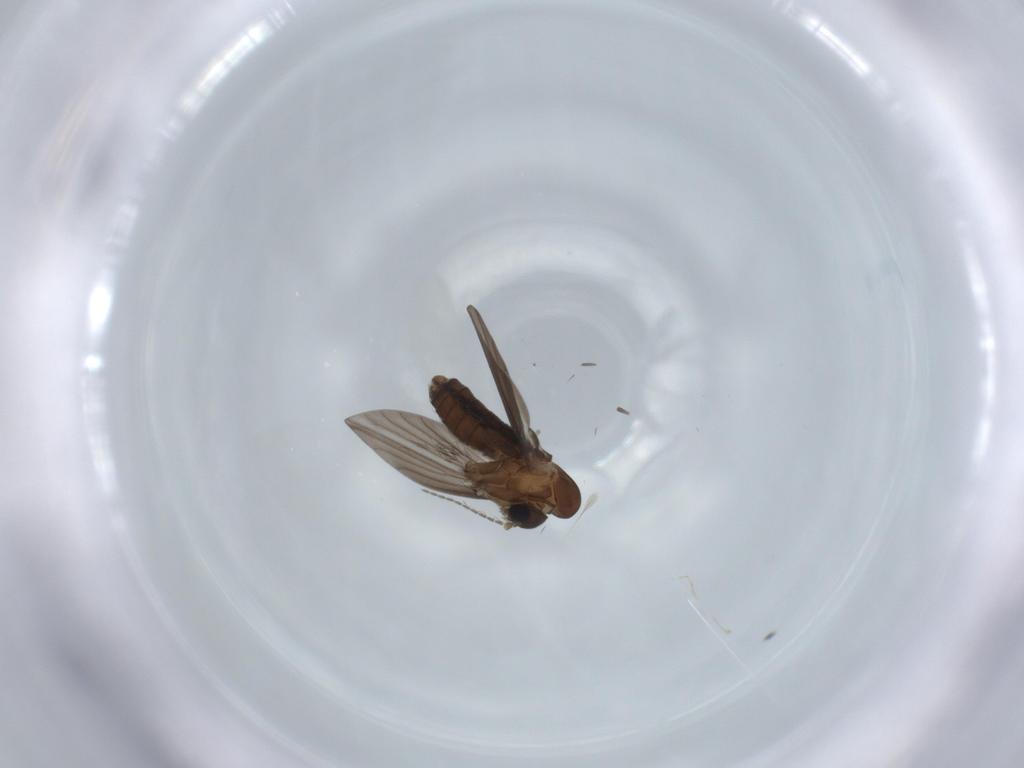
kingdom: Animalia
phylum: Arthropoda
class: Insecta
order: Diptera
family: Psychodidae
